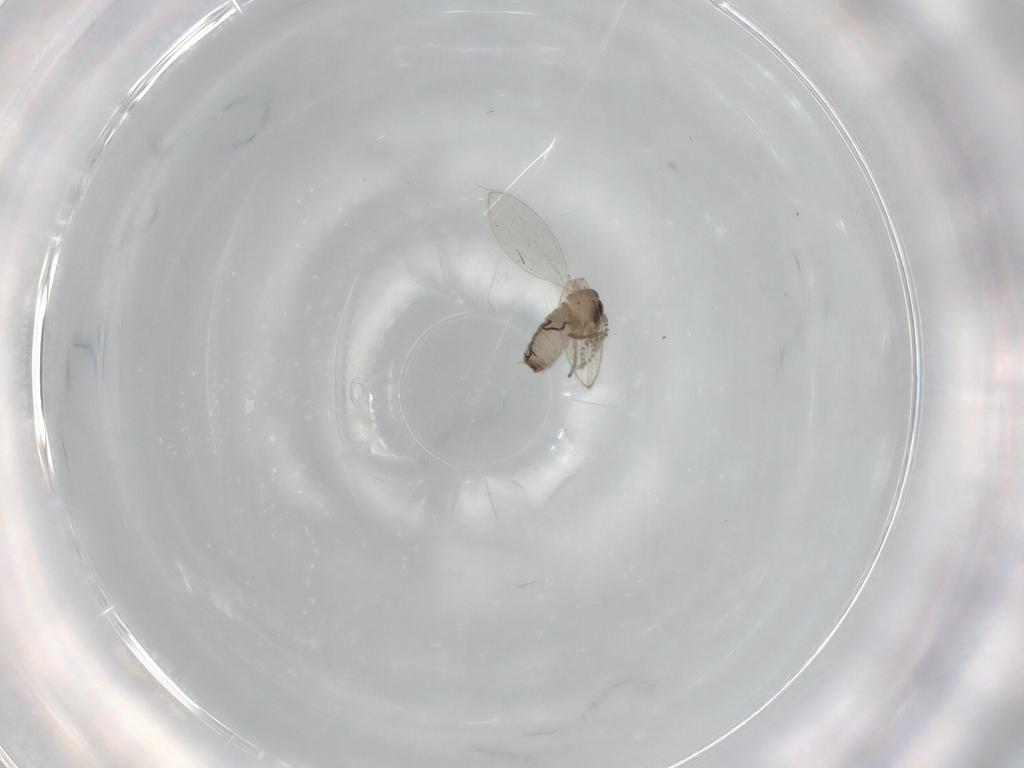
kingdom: Animalia
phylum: Arthropoda
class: Insecta
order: Diptera
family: Psychodidae
